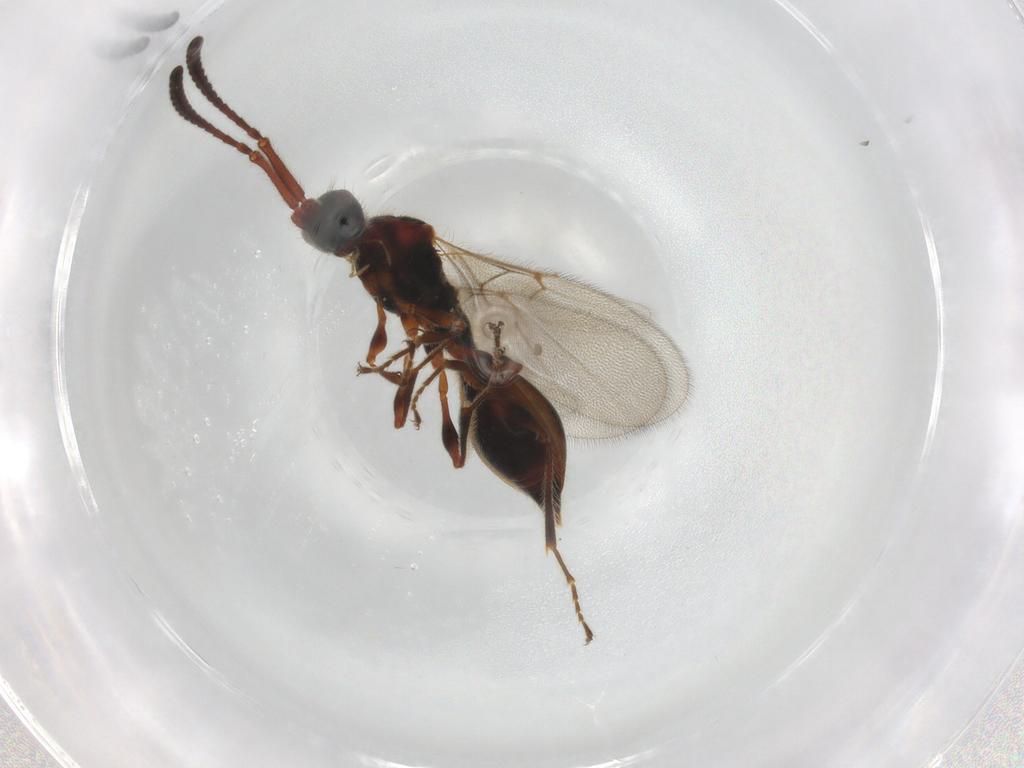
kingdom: Animalia
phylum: Arthropoda
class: Insecta
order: Hymenoptera
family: Diapriidae
